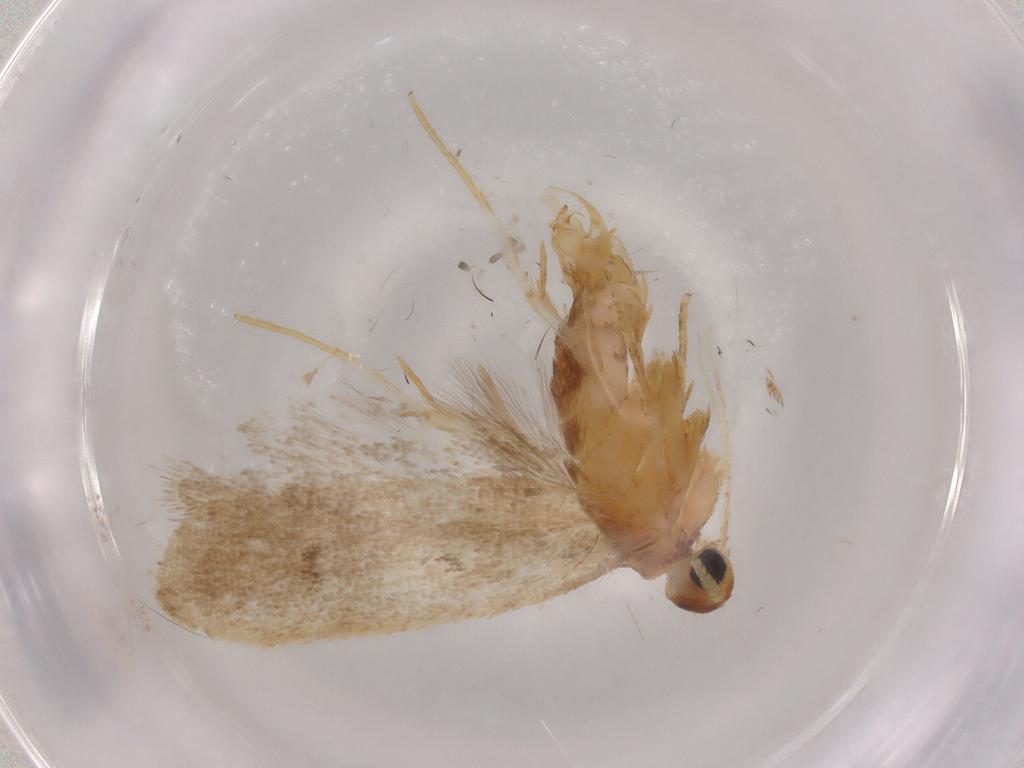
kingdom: Animalia
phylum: Arthropoda
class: Insecta
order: Lepidoptera
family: Lecithoceridae
